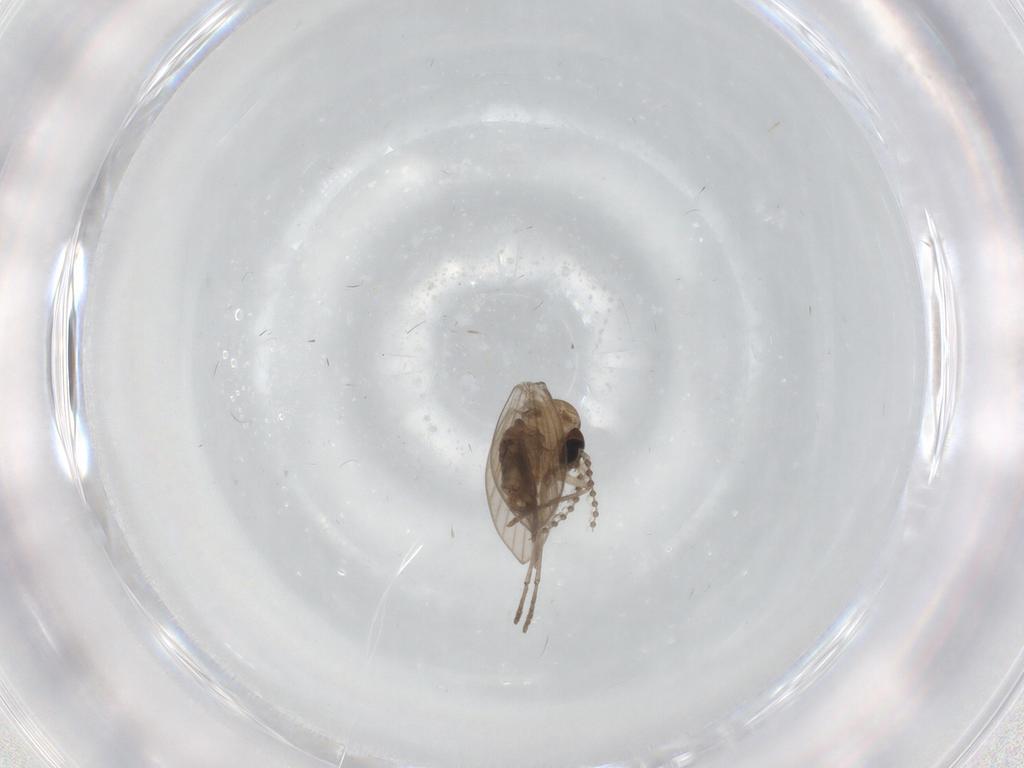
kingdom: Animalia
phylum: Arthropoda
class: Insecta
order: Diptera
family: Psychodidae
